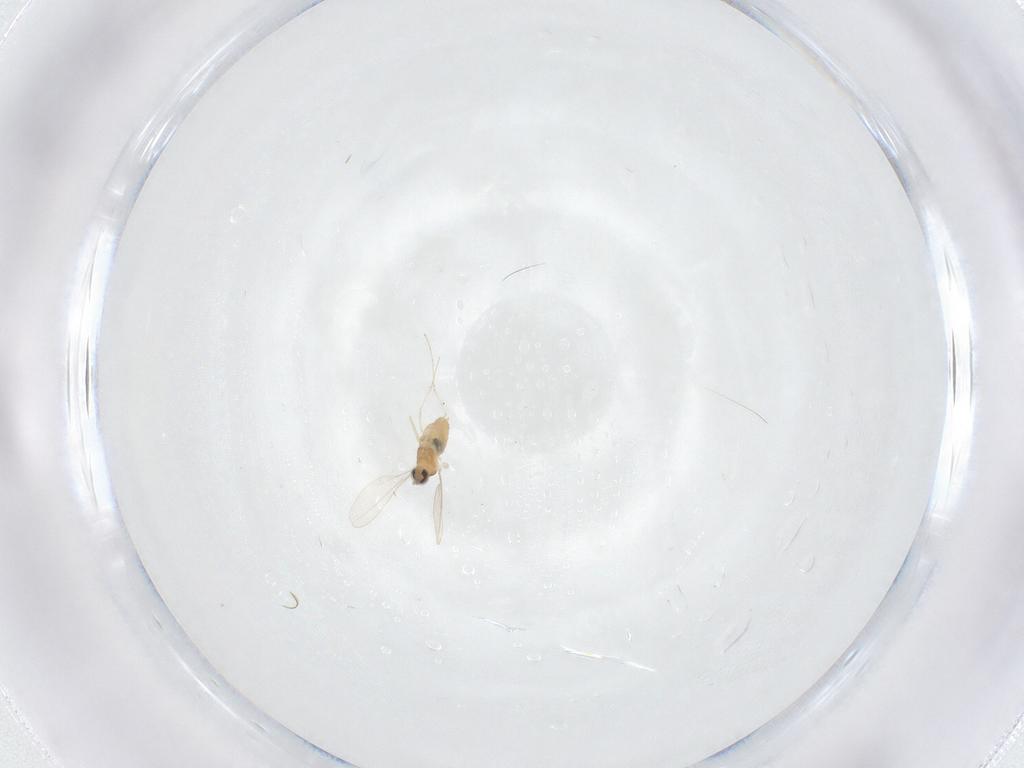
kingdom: Animalia
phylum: Arthropoda
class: Insecta
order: Diptera
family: Cecidomyiidae
